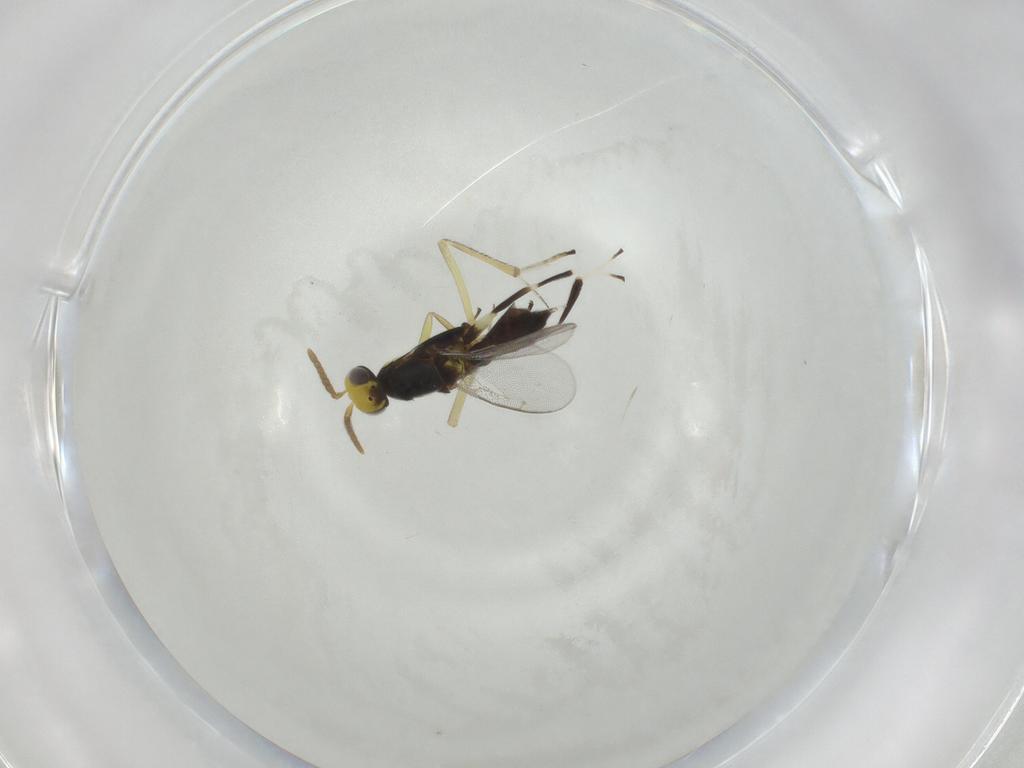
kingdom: Animalia
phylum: Arthropoda
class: Insecta
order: Hymenoptera
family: Eupelmidae
